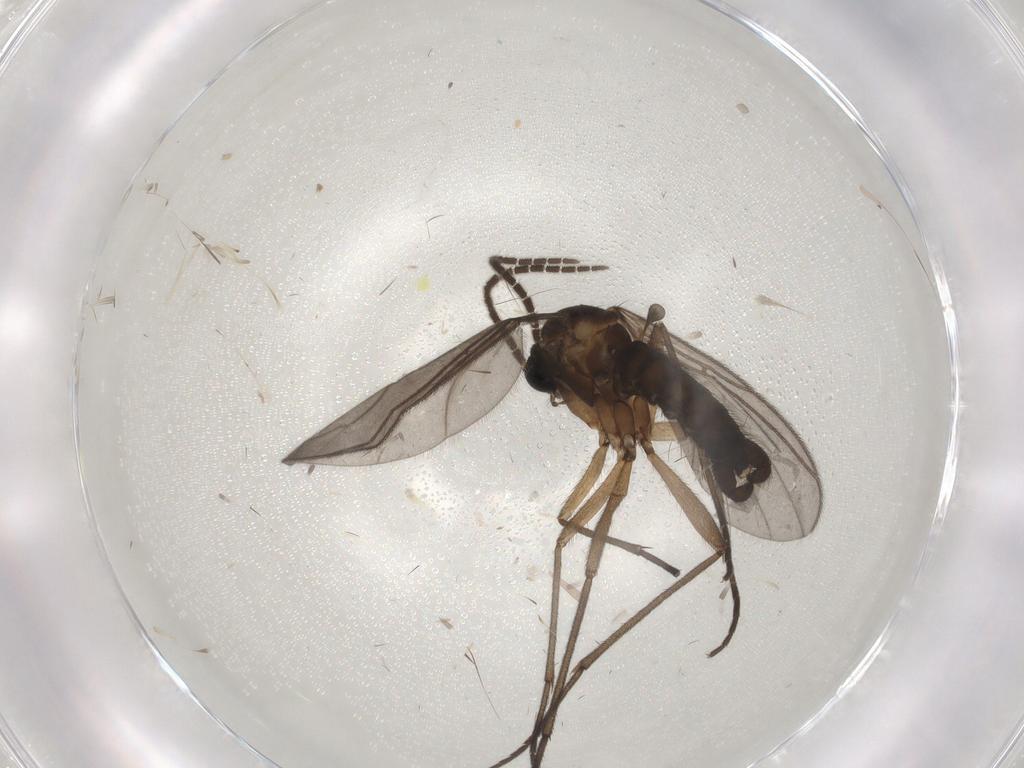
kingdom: Animalia
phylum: Arthropoda
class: Insecta
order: Diptera
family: Sciaridae
